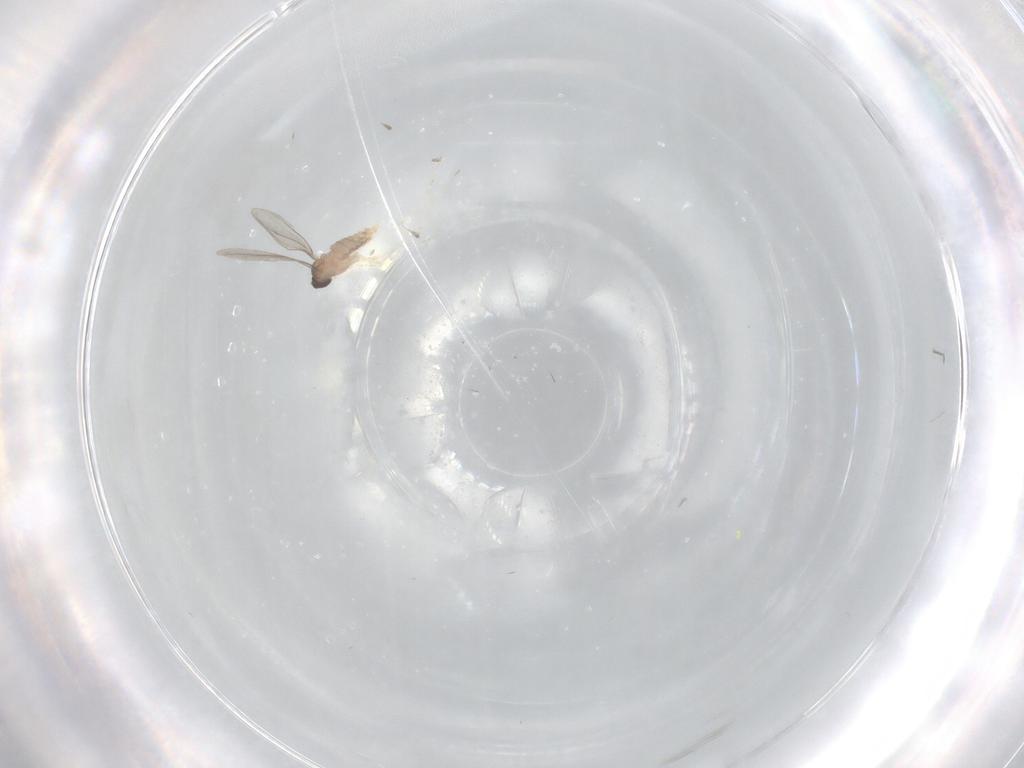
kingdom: Animalia
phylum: Arthropoda
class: Insecta
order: Diptera
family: Cecidomyiidae
